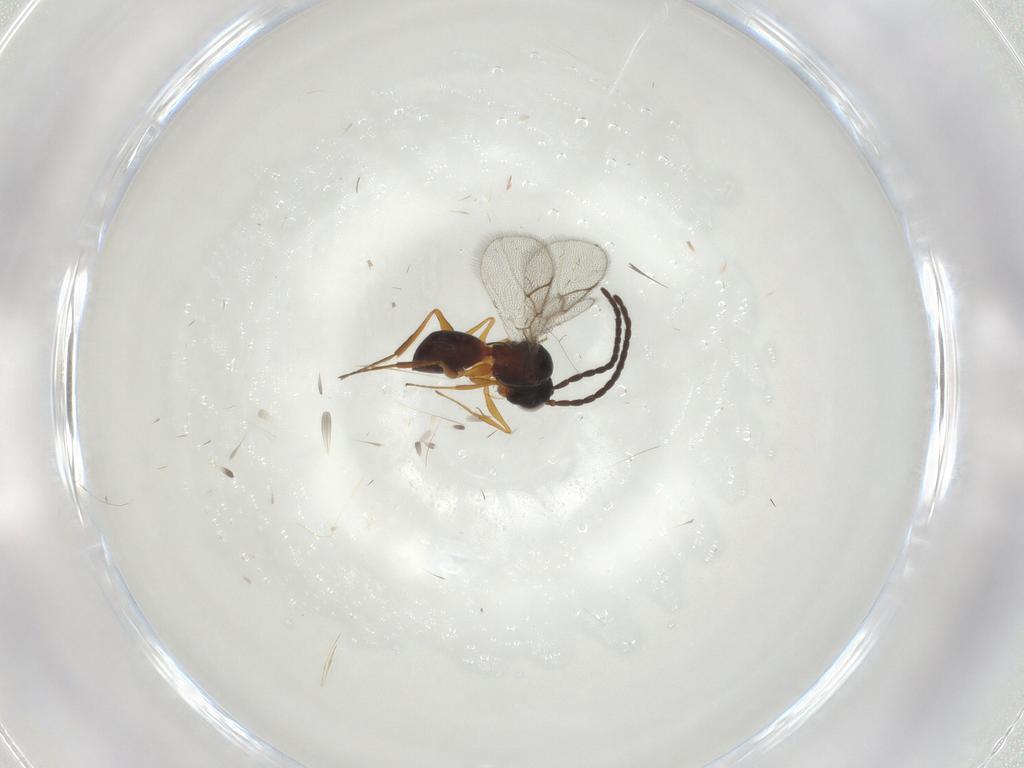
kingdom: Animalia
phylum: Arthropoda
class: Insecta
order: Hymenoptera
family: Figitidae
